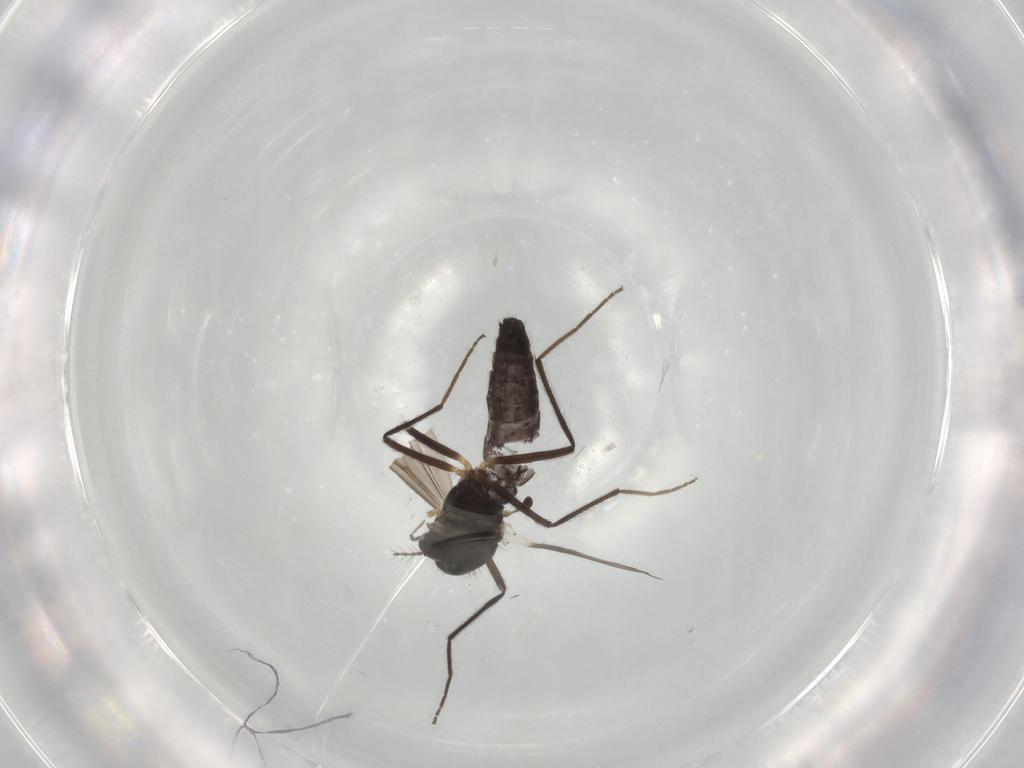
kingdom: Animalia
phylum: Arthropoda
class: Insecta
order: Diptera
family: Chironomidae
